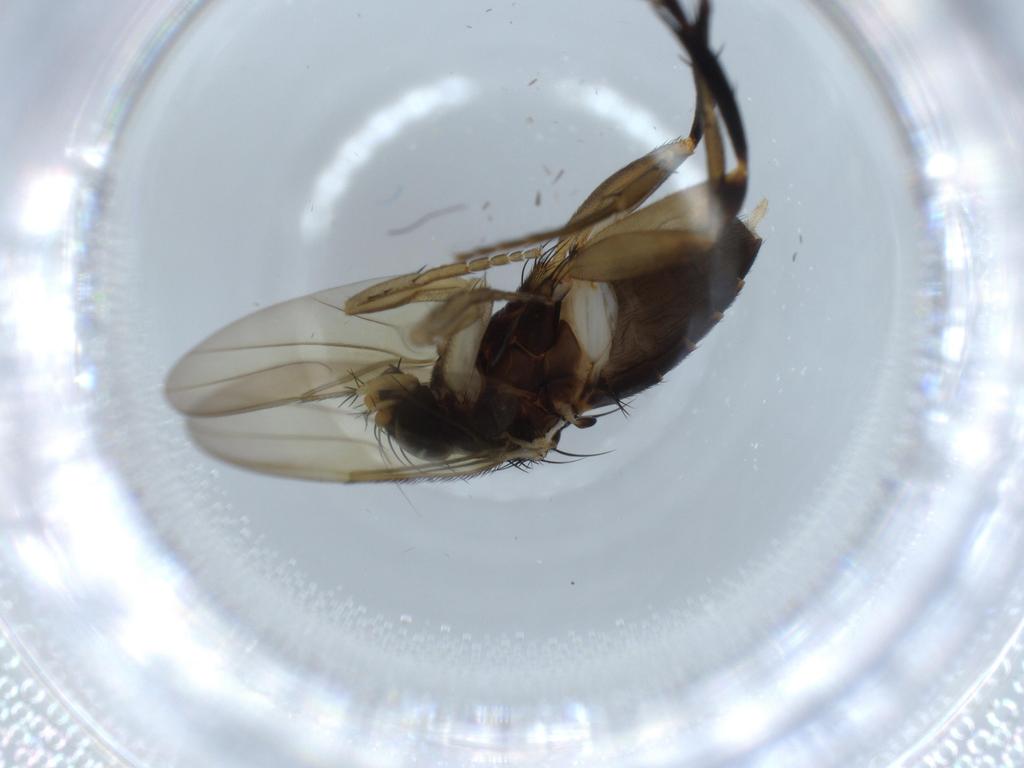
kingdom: Animalia
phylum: Arthropoda
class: Insecta
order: Diptera
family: Phoridae
